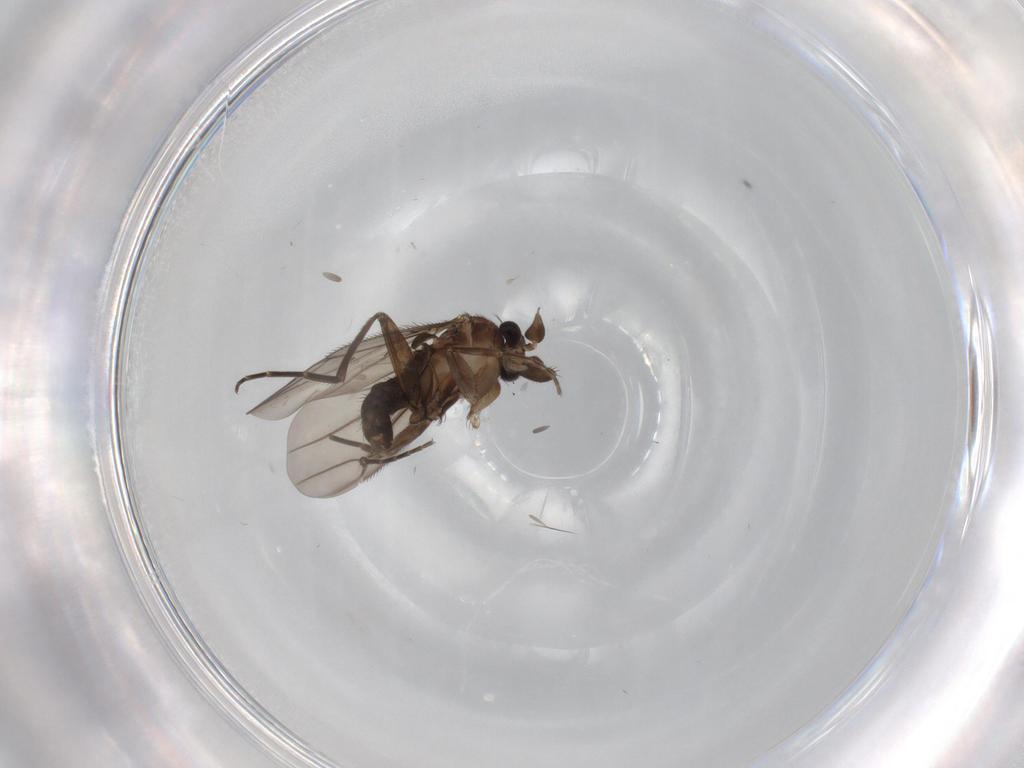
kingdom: Animalia
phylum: Arthropoda
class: Insecta
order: Diptera
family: Phoridae
